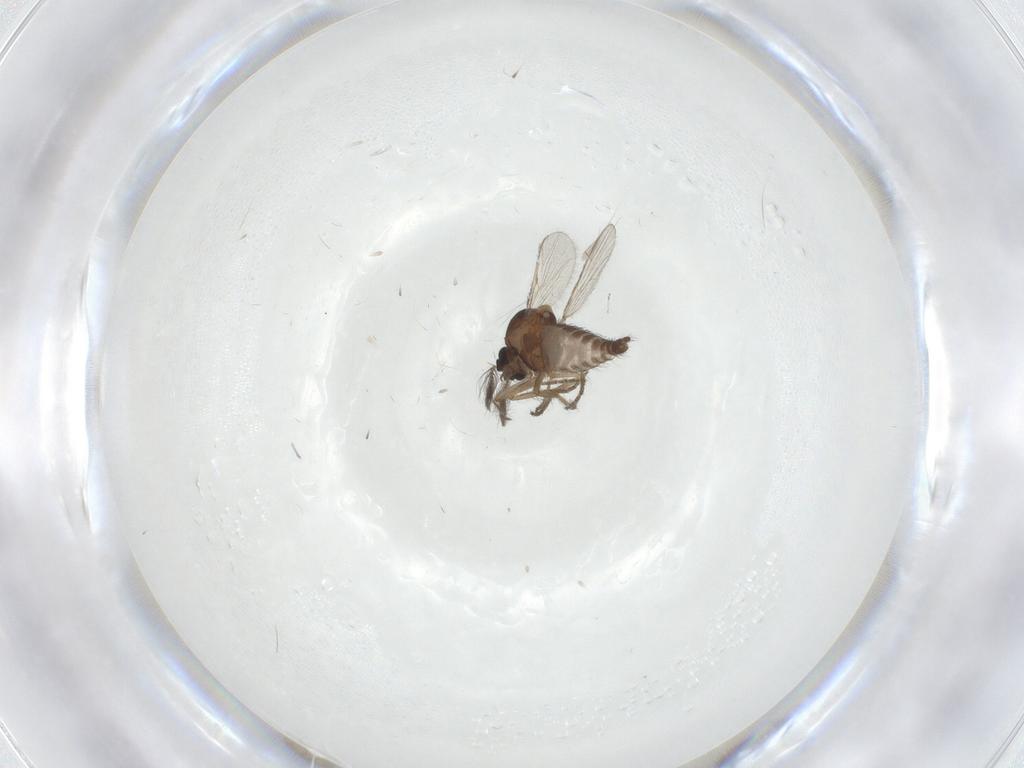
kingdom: Animalia
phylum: Arthropoda
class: Insecta
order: Diptera
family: Ceratopogonidae
